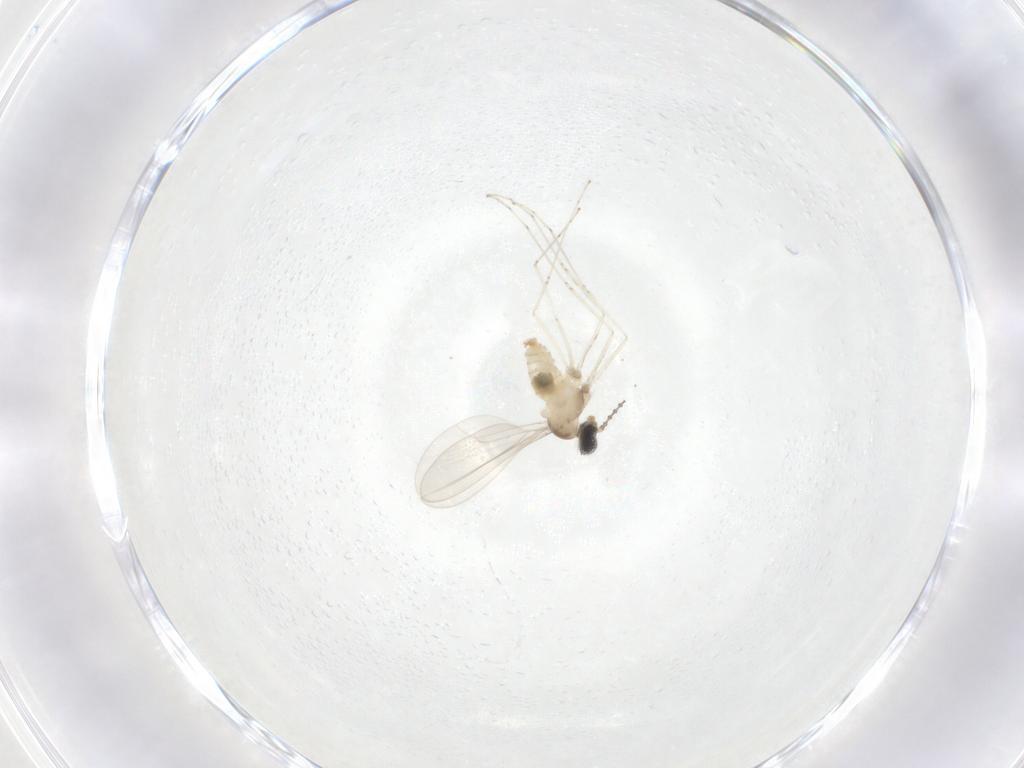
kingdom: Animalia
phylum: Arthropoda
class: Insecta
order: Diptera
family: Cecidomyiidae
